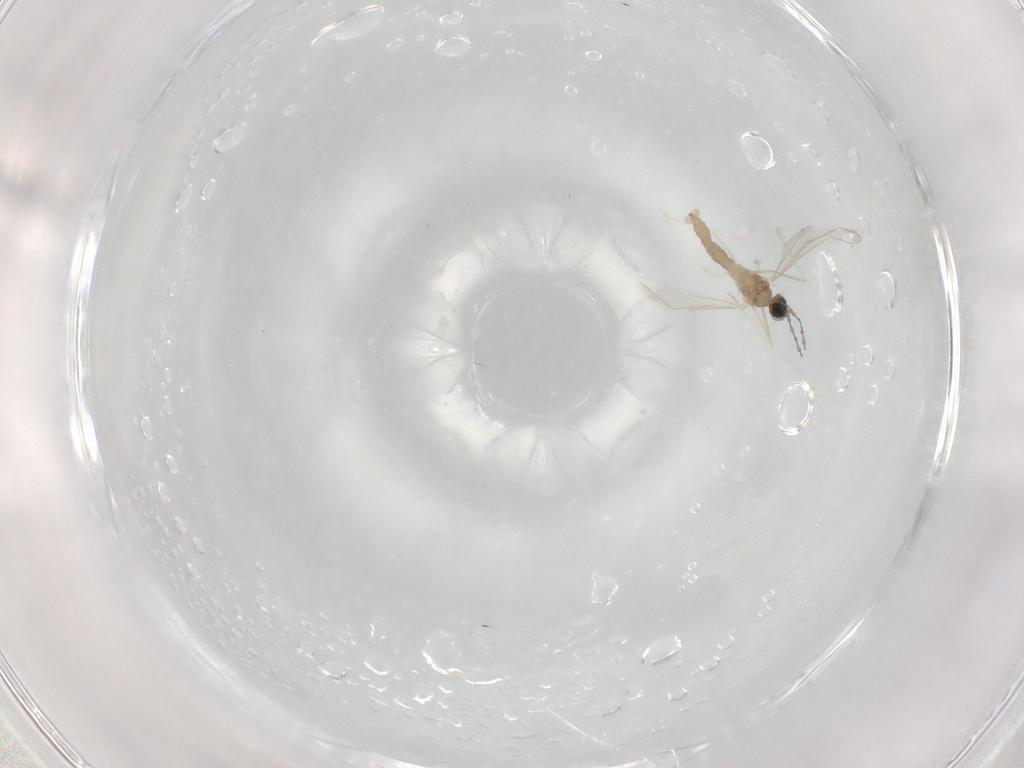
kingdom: Animalia
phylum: Arthropoda
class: Insecta
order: Diptera
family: Cecidomyiidae
